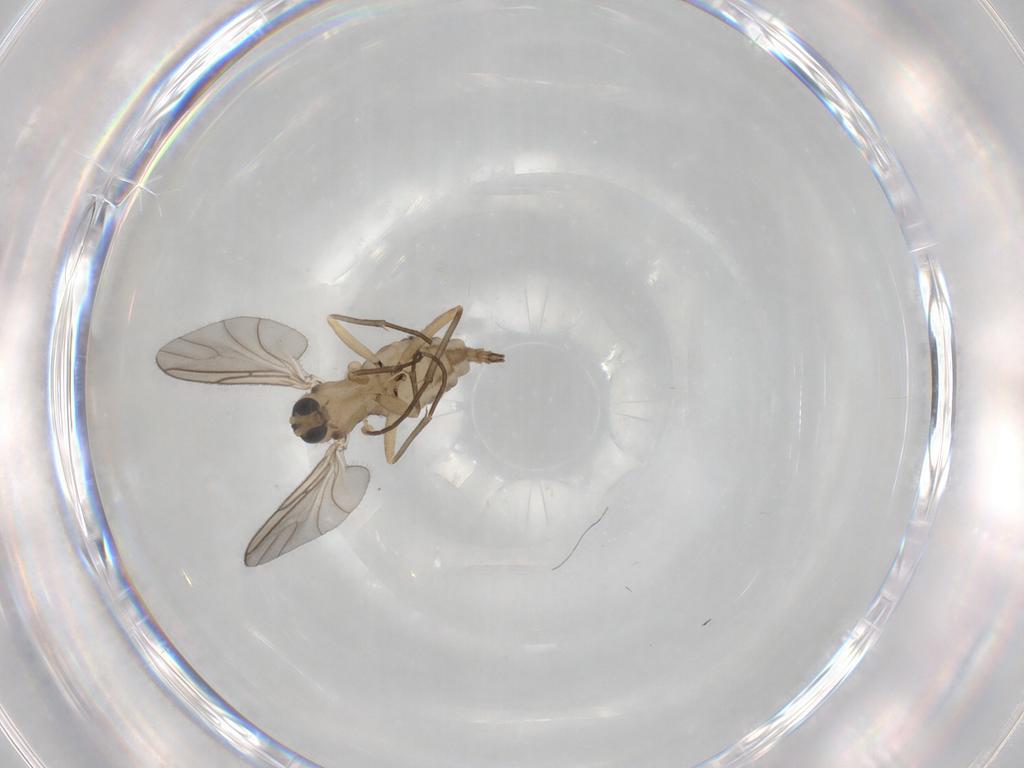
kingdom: Animalia
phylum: Arthropoda
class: Insecta
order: Diptera
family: Sciaridae
